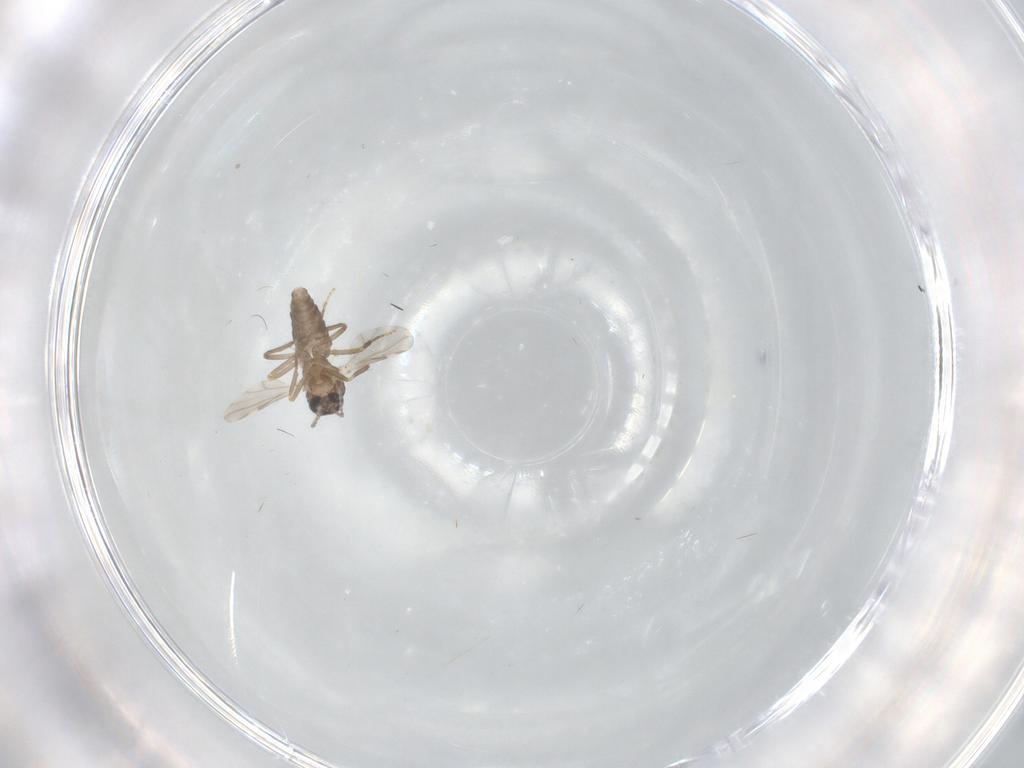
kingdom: Animalia
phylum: Arthropoda
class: Insecta
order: Diptera
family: Ceratopogonidae
